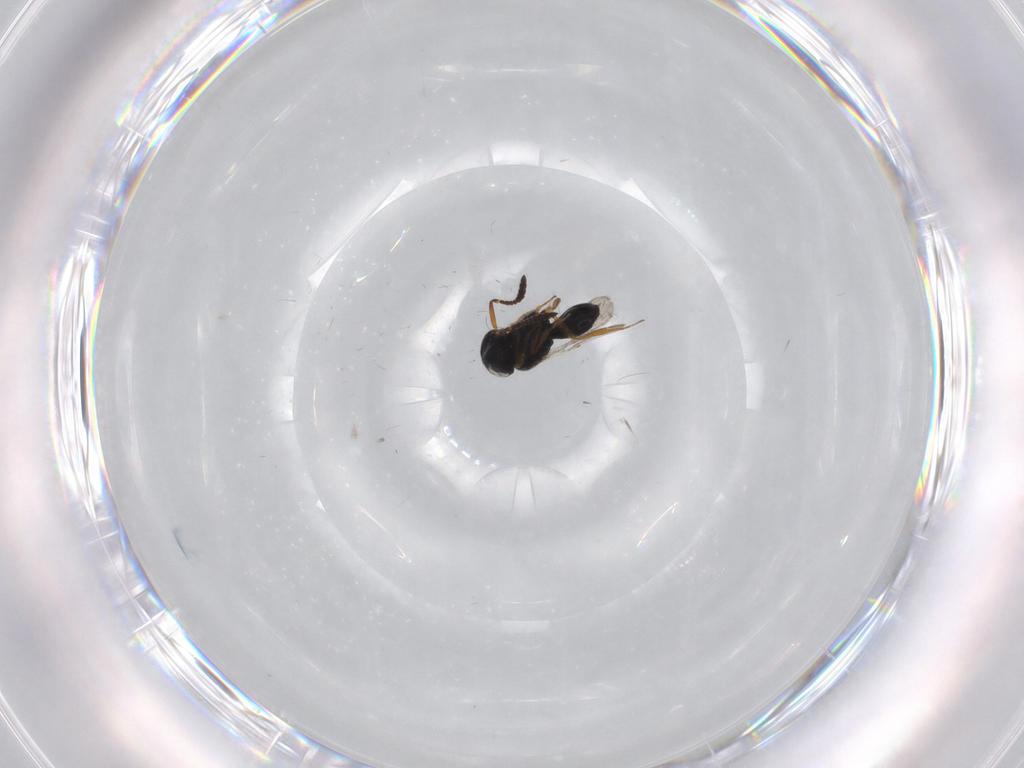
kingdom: Animalia
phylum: Arthropoda
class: Insecta
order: Hymenoptera
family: Scelionidae
